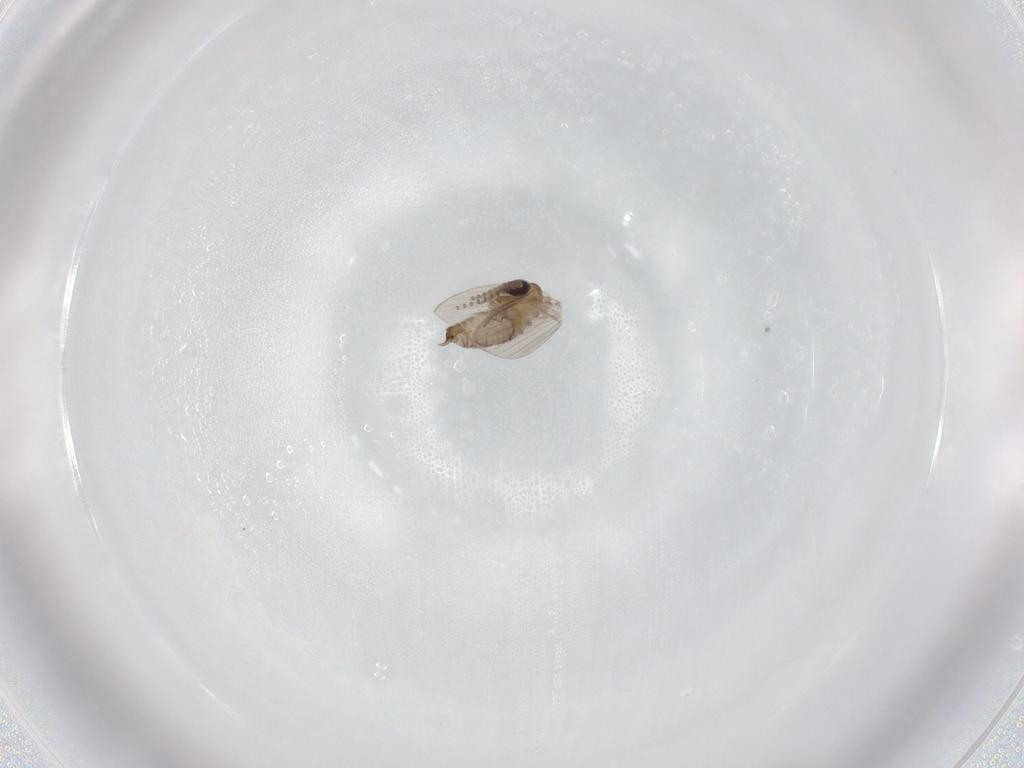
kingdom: Animalia
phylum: Arthropoda
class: Insecta
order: Diptera
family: Psychodidae
